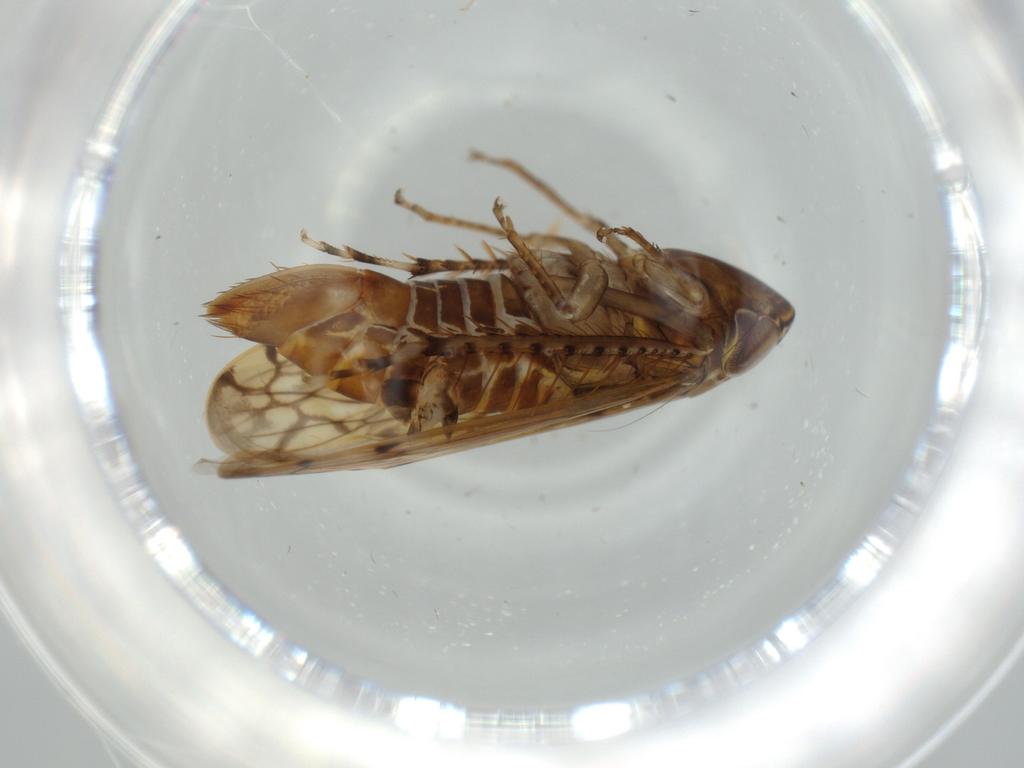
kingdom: Animalia
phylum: Arthropoda
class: Insecta
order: Hemiptera
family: Cicadellidae
